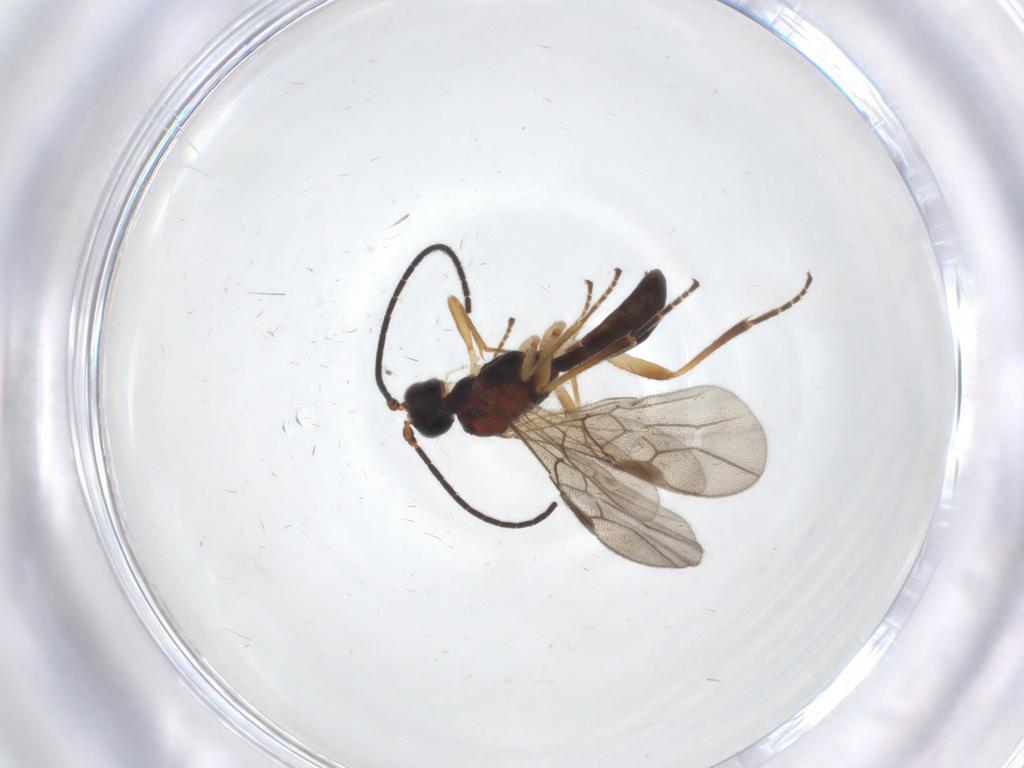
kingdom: Animalia
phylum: Arthropoda
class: Insecta
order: Hymenoptera
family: Braconidae
